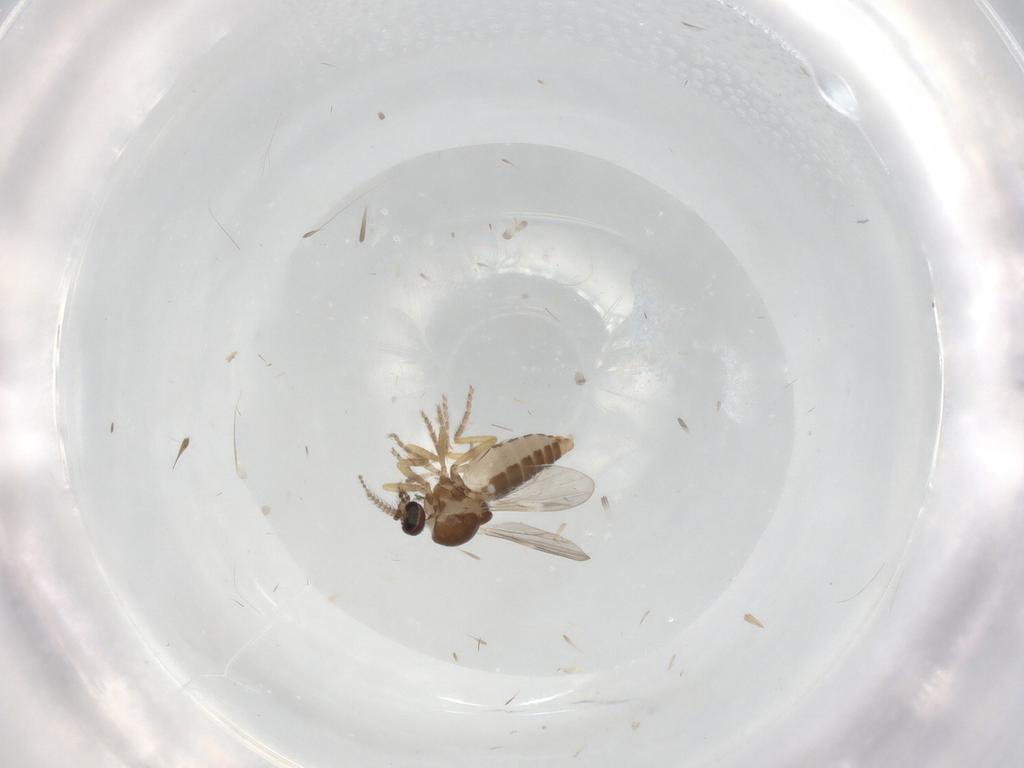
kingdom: Animalia
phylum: Arthropoda
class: Insecta
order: Diptera
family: Ceratopogonidae
